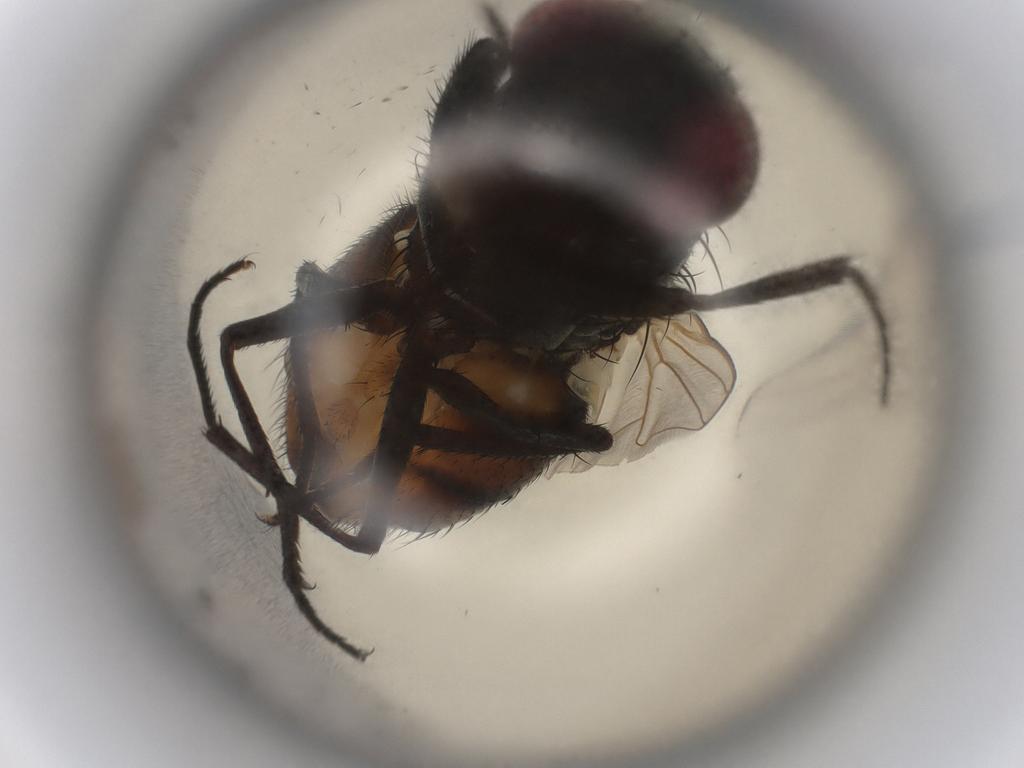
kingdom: Animalia
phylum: Arthropoda
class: Insecta
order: Diptera
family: Muscidae
